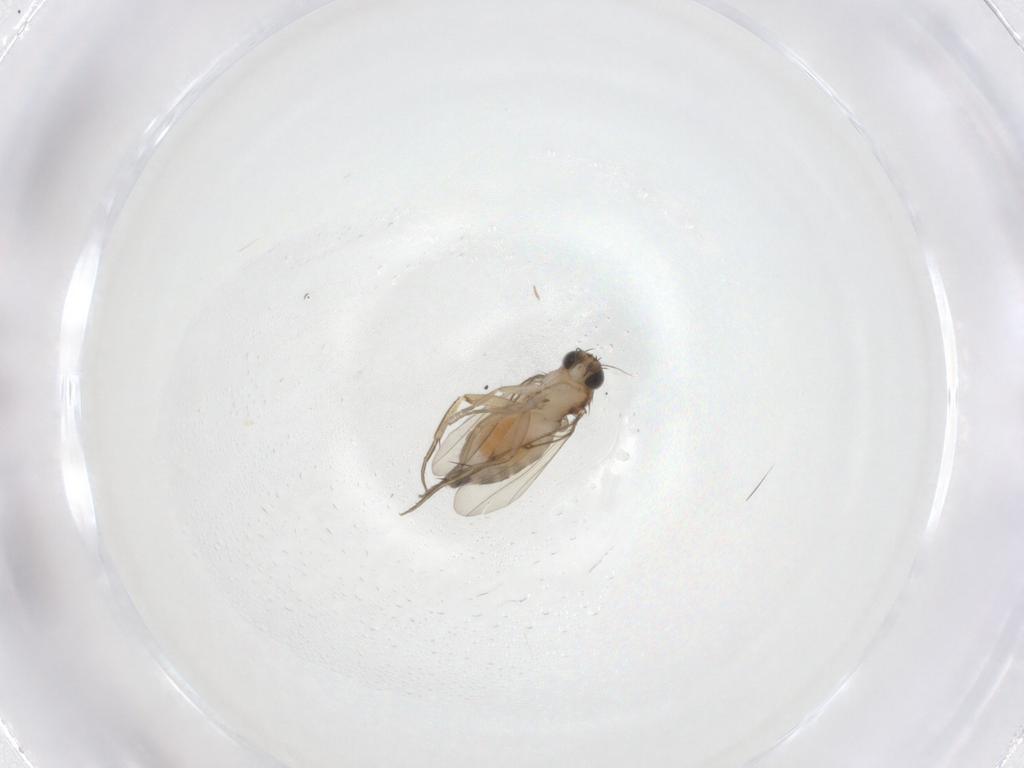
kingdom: Animalia
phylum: Arthropoda
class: Insecta
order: Diptera
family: Phoridae
